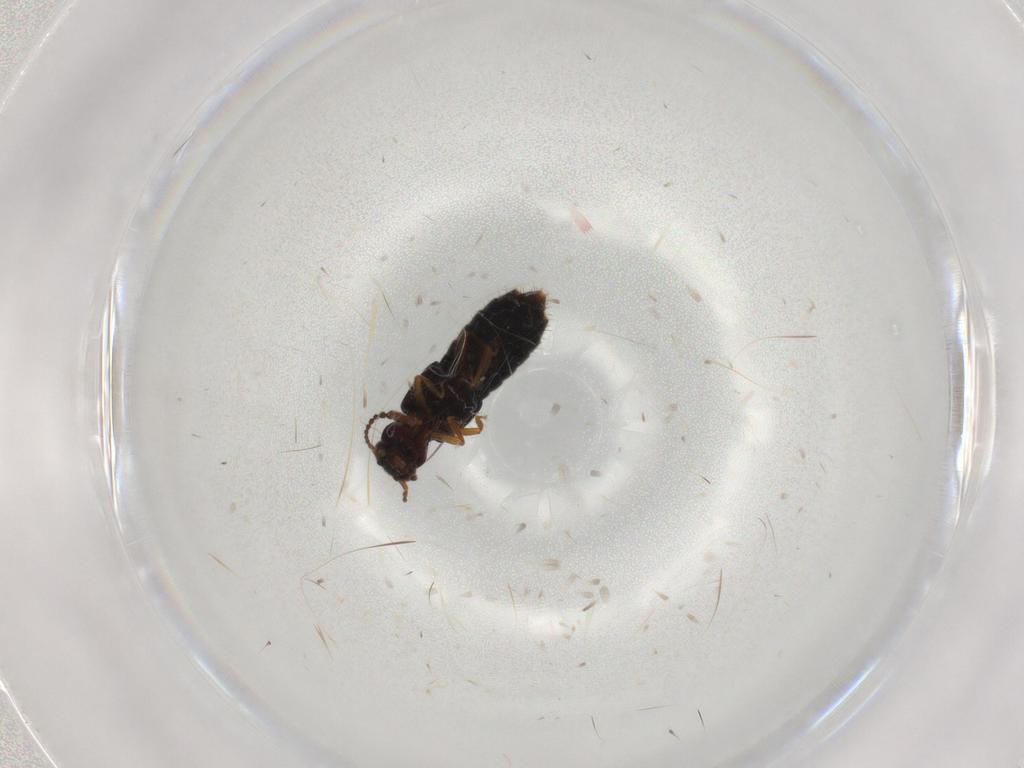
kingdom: Animalia
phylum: Arthropoda
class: Insecta
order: Coleoptera
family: Staphylinidae
